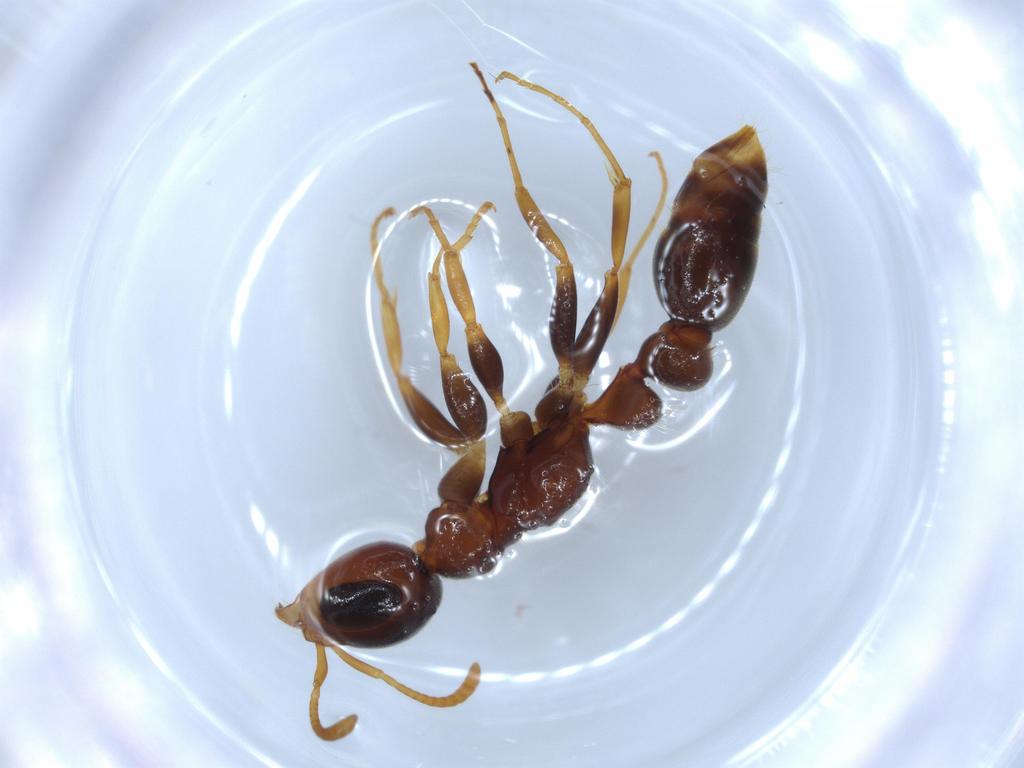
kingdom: Animalia
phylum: Arthropoda
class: Insecta
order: Hymenoptera
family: Formicidae
